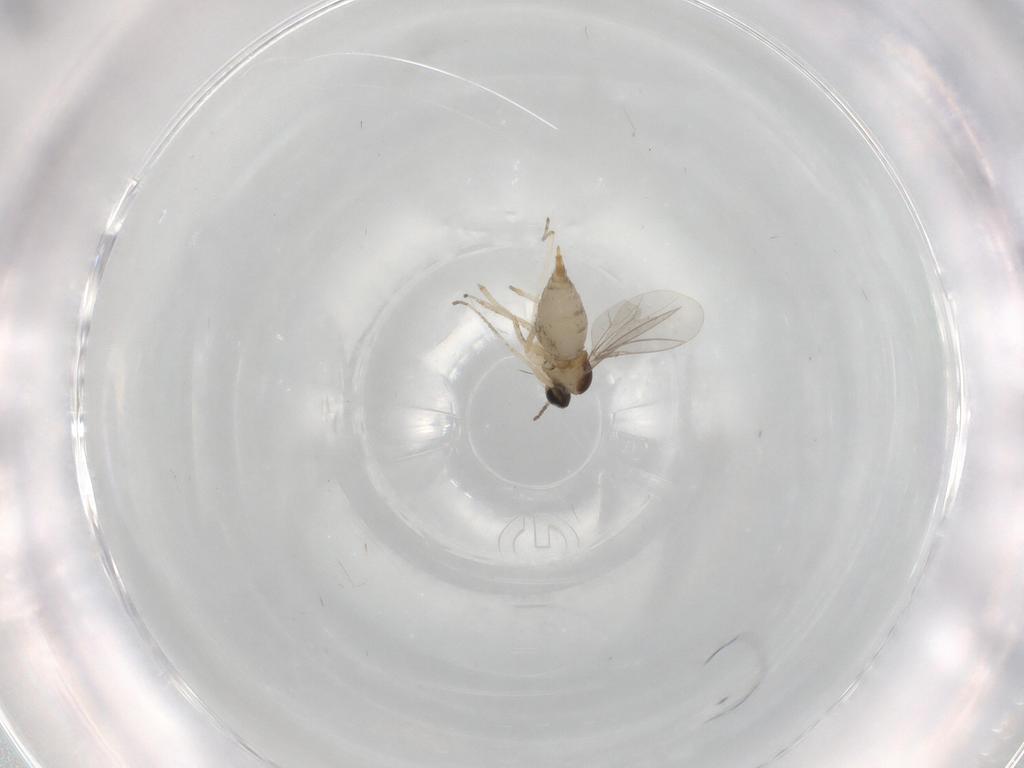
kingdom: Animalia
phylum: Arthropoda
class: Insecta
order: Diptera
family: Cecidomyiidae
